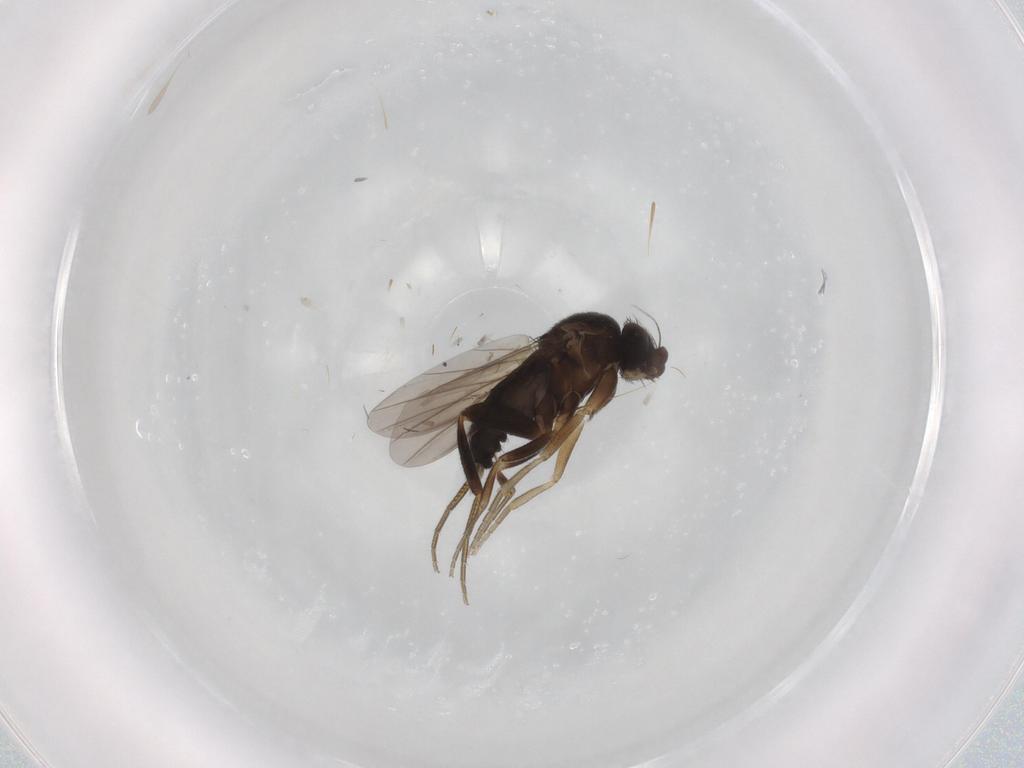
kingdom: Animalia
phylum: Arthropoda
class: Insecta
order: Diptera
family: Phoridae
